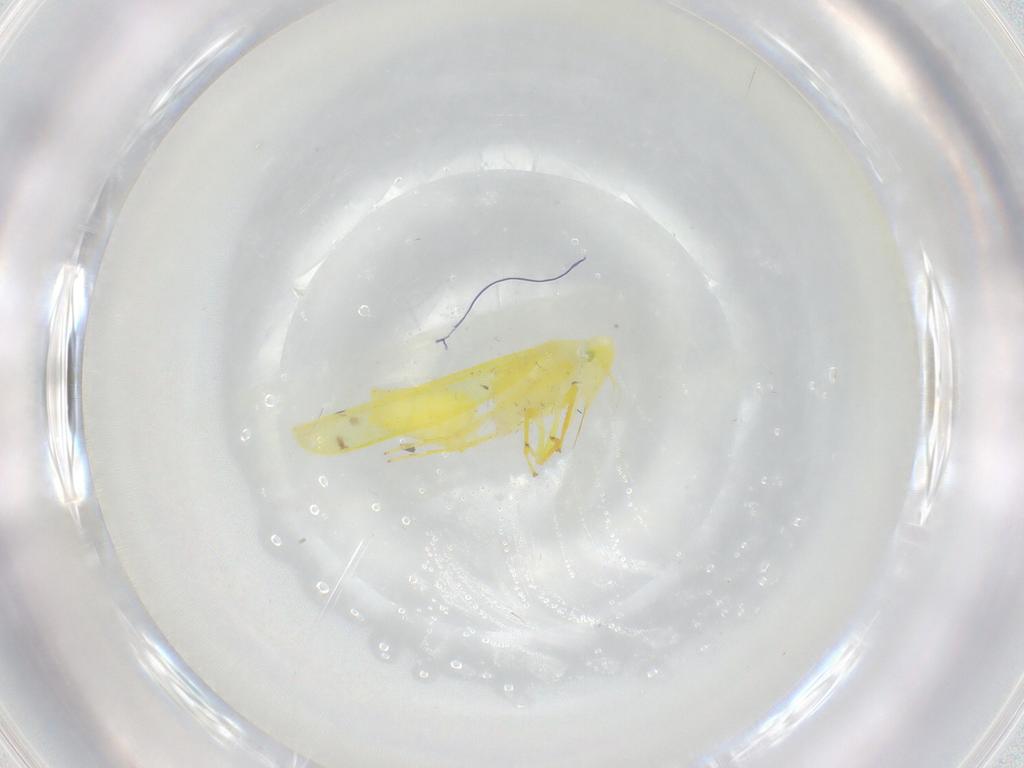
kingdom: Animalia
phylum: Arthropoda
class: Insecta
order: Hemiptera
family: Cicadellidae
